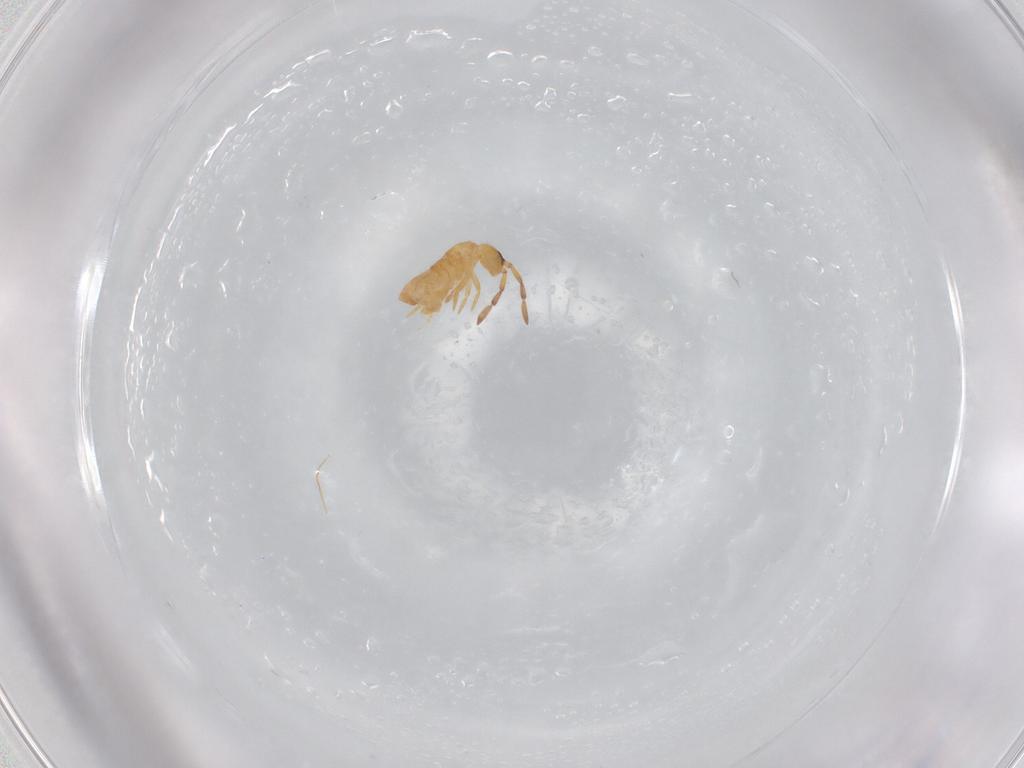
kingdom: Animalia
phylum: Arthropoda
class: Collembola
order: Entomobryomorpha
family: Entomobryidae
